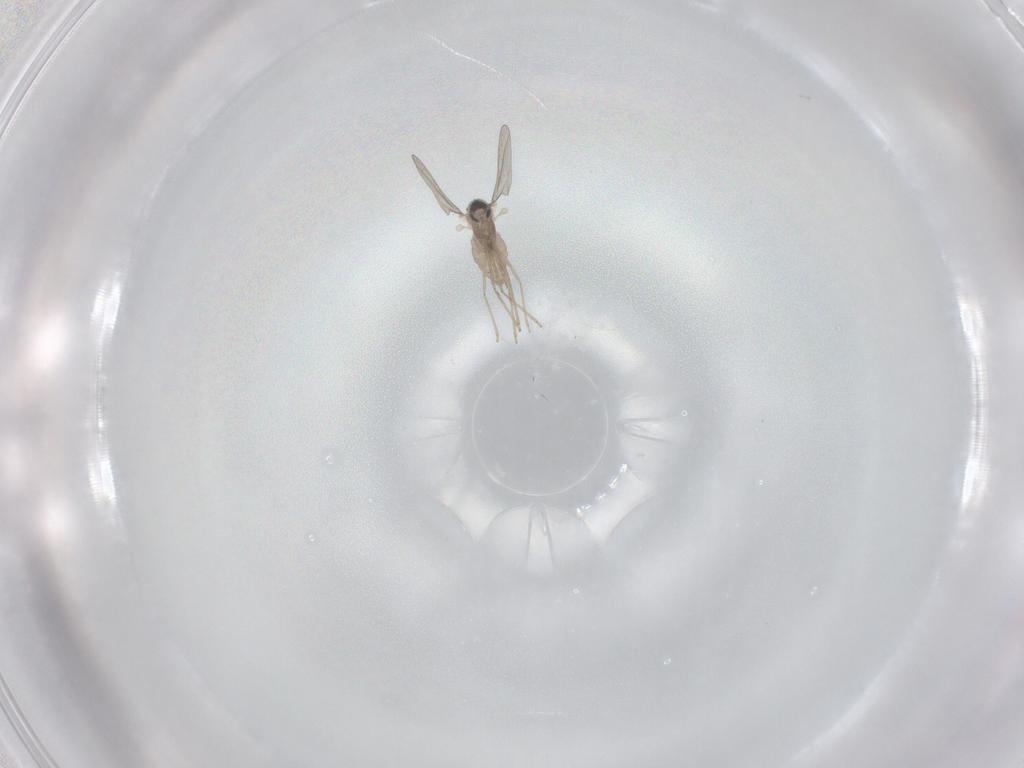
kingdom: Animalia
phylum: Arthropoda
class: Insecta
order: Diptera
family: Cecidomyiidae
